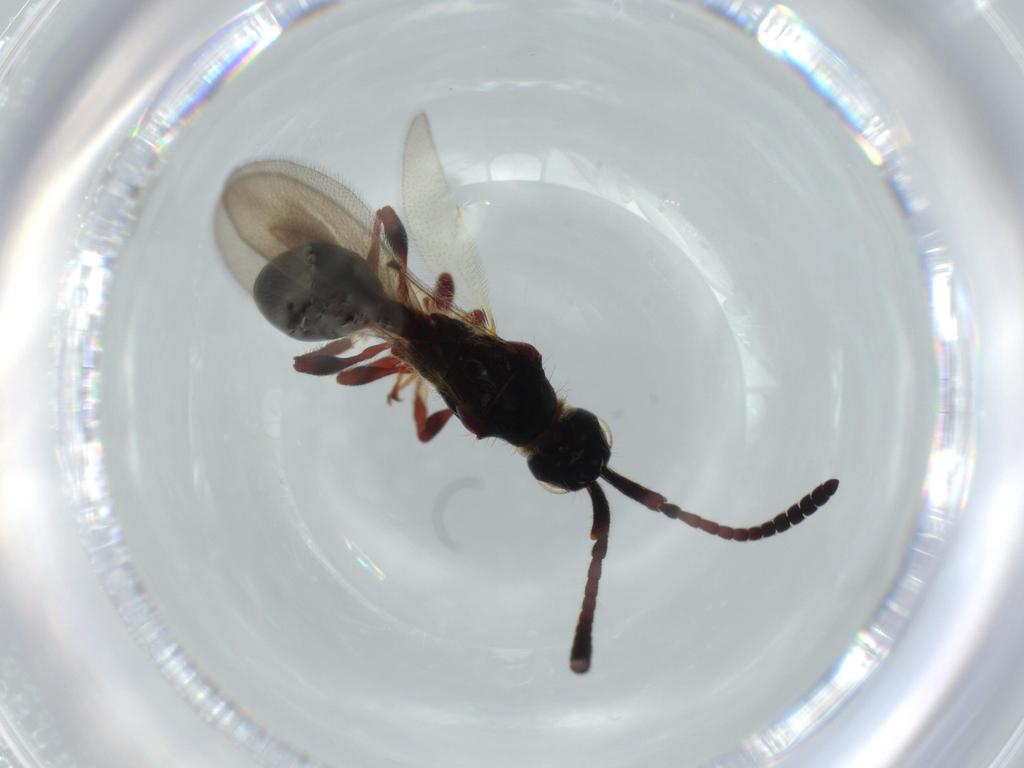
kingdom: Animalia
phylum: Arthropoda
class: Insecta
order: Hymenoptera
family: Diapriidae
